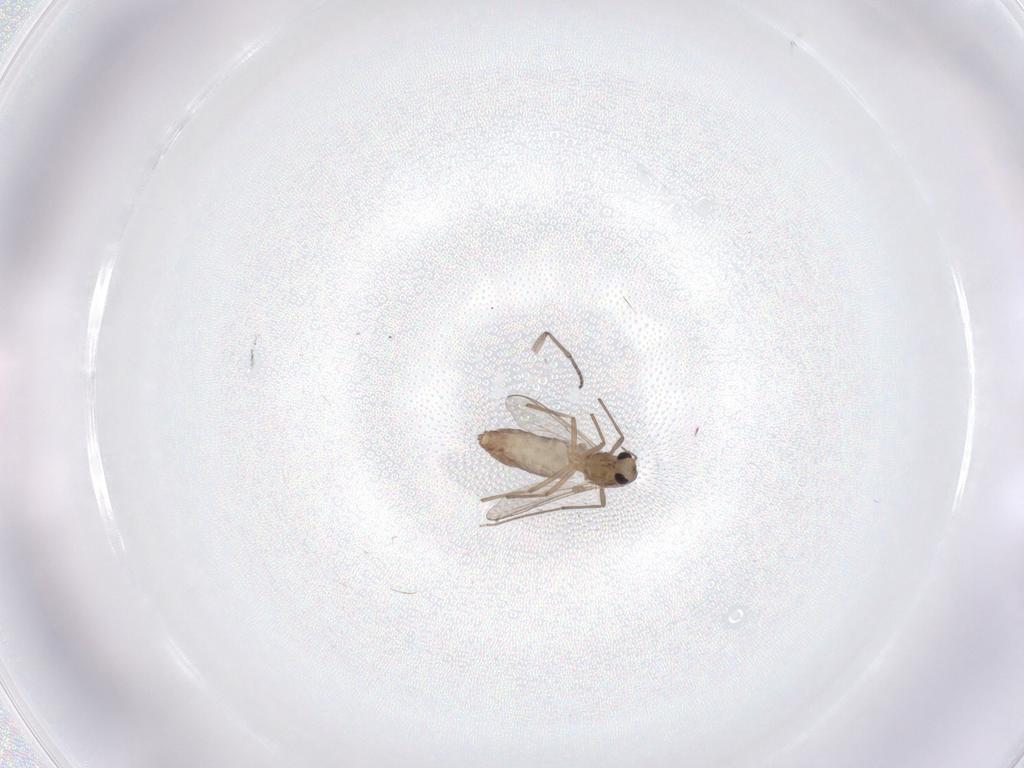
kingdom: Animalia
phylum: Arthropoda
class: Insecta
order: Diptera
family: Chironomidae
